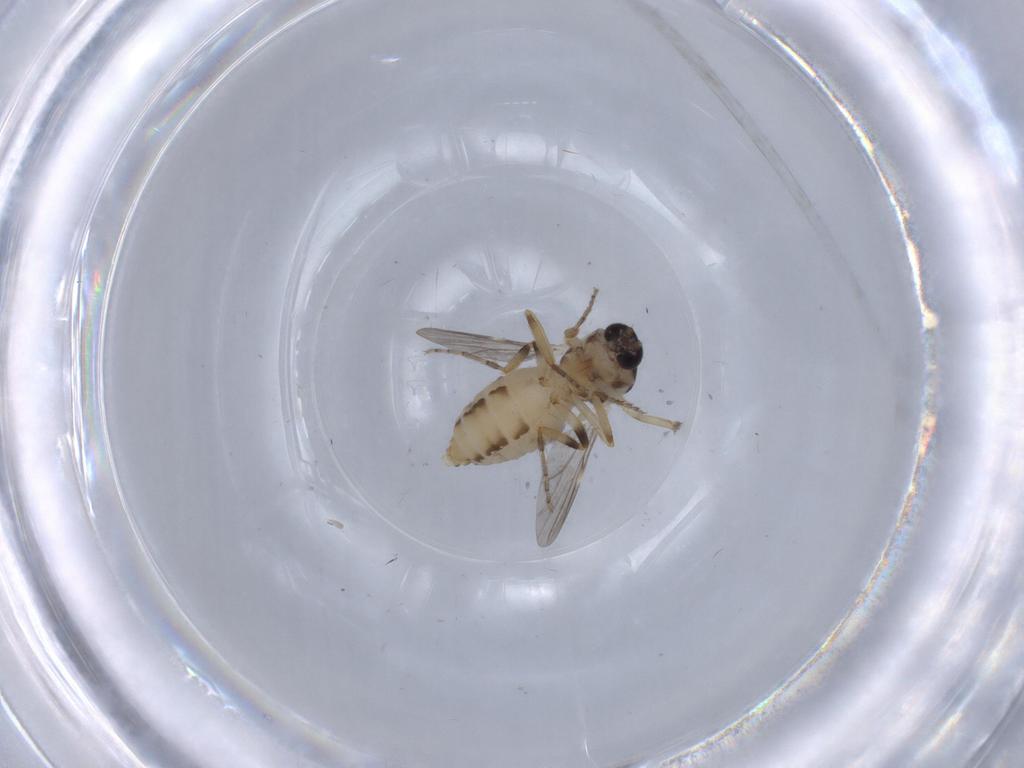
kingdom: Animalia
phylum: Arthropoda
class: Insecta
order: Diptera
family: Ceratopogonidae
